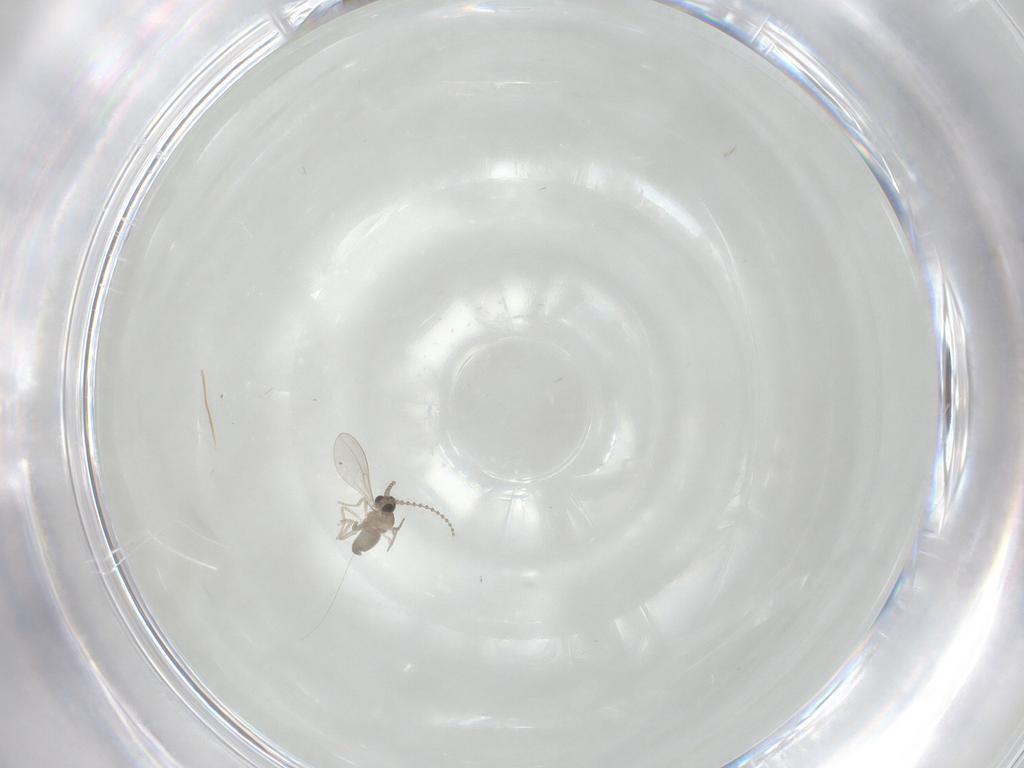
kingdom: Animalia
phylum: Arthropoda
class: Insecta
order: Diptera
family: Cecidomyiidae
